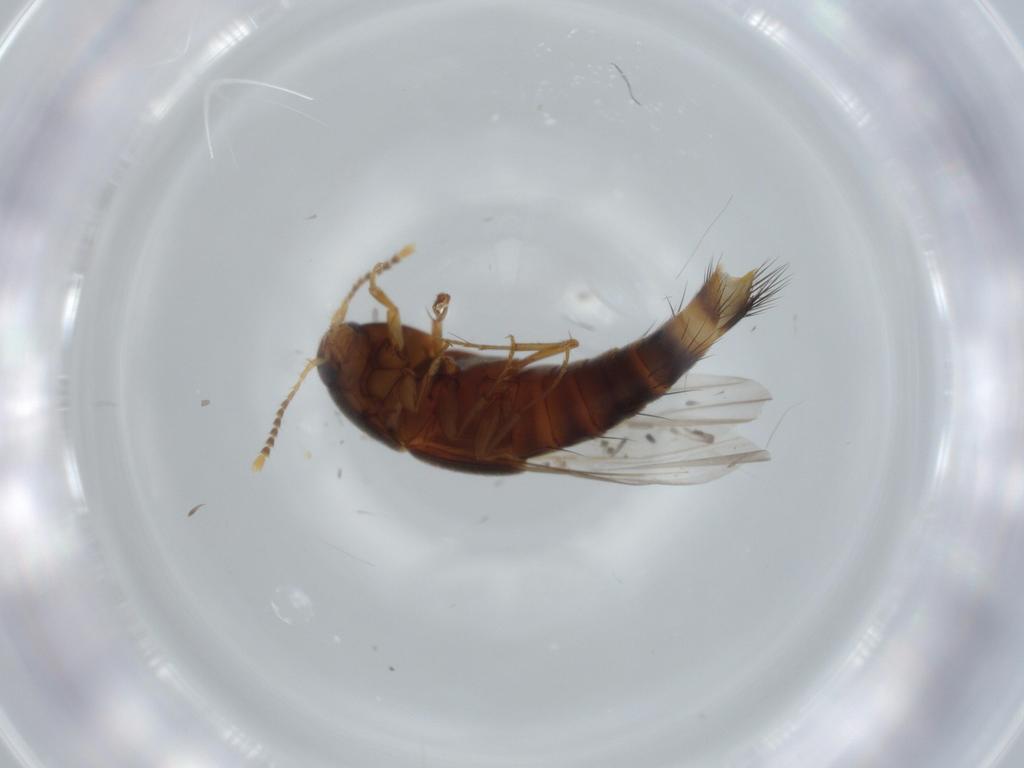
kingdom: Animalia
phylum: Arthropoda
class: Insecta
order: Coleoptera
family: Staphylinidae
